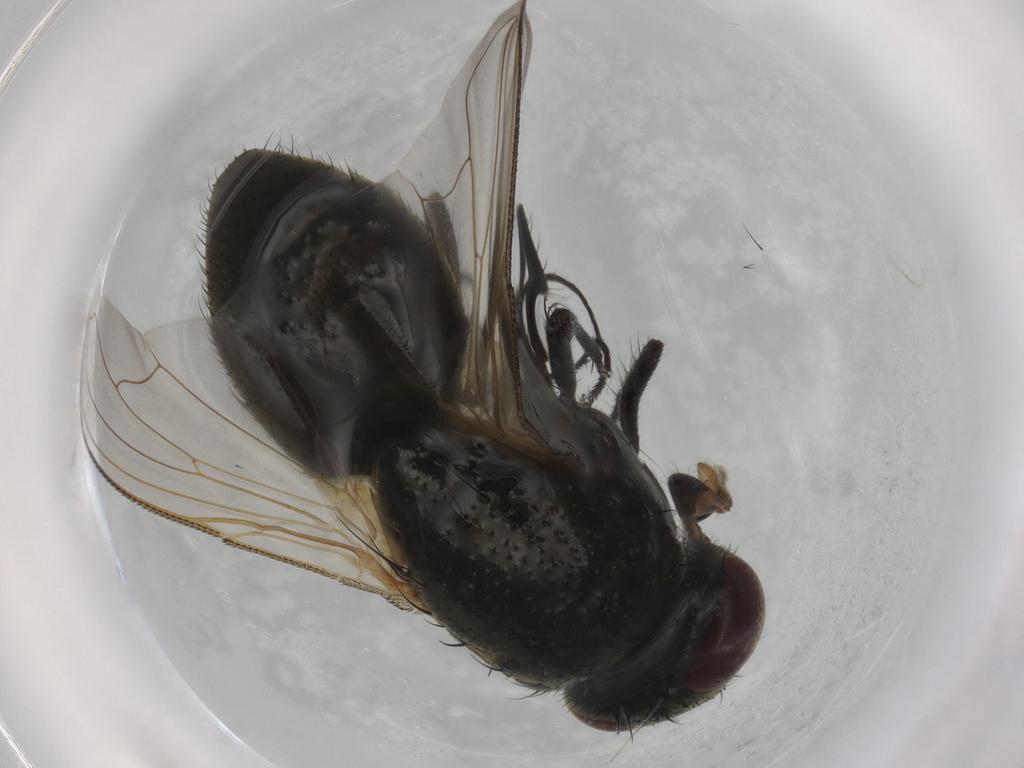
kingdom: Animalia
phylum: Arthropoda
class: Insecta
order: Diptera
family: Muscidae
